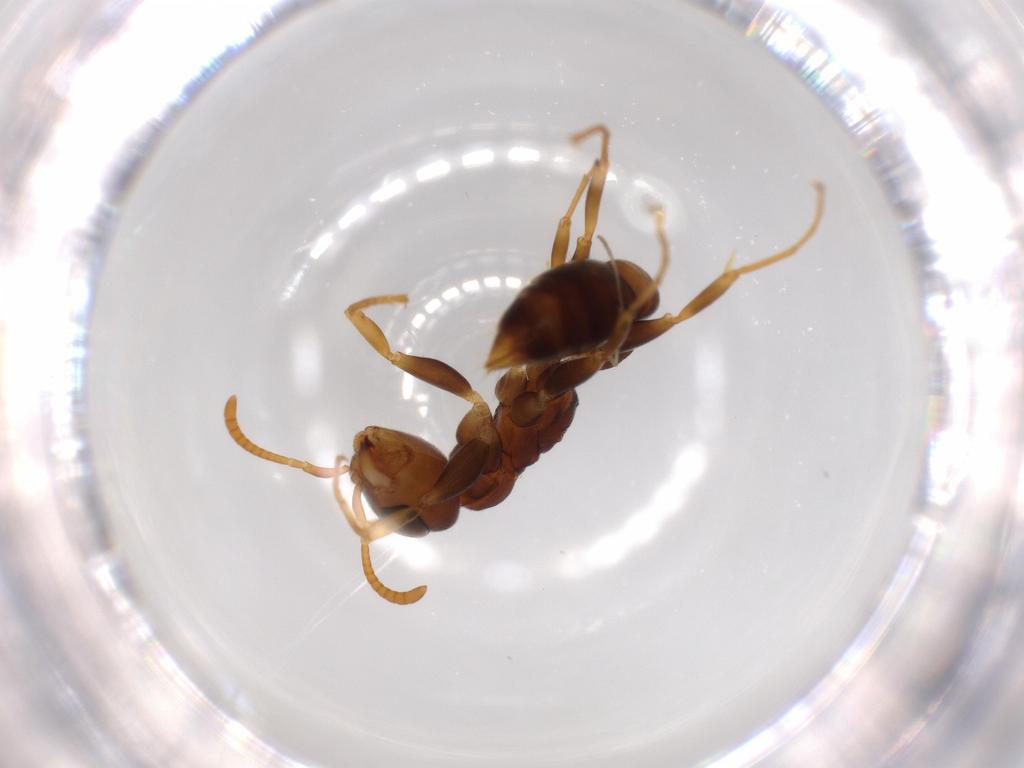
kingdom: Animalia
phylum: Arthropoda
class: Insecta
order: Hymenoptera
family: Formicidae
